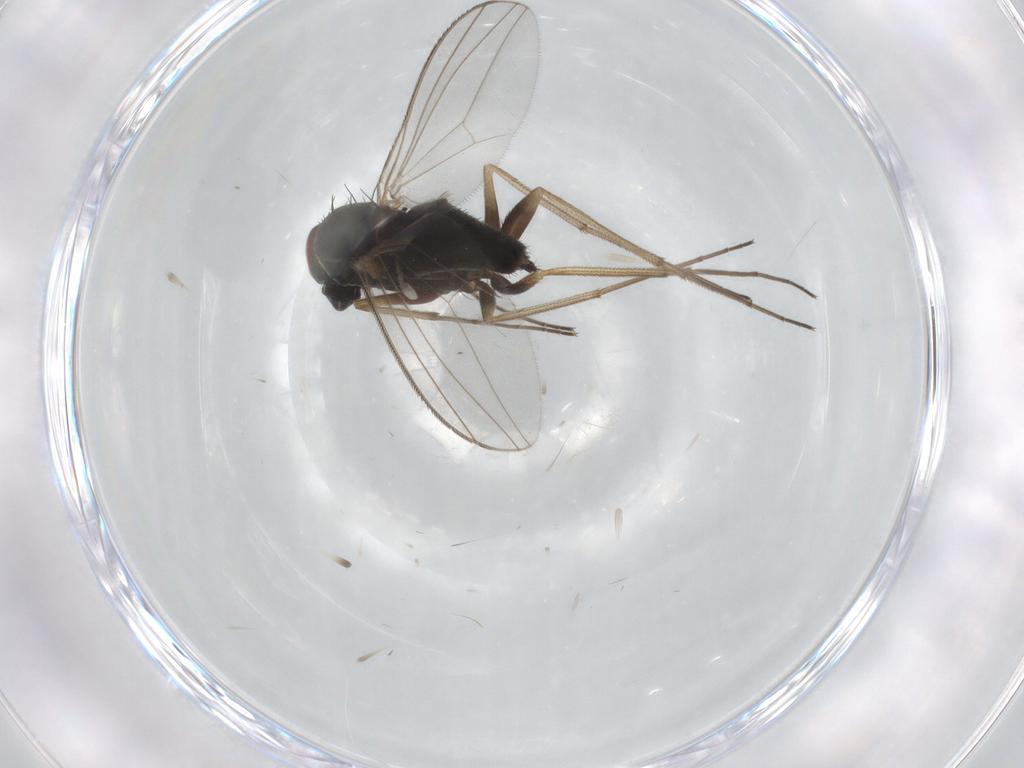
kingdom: Animalia
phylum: Arthropoda
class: Insecta
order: Diptera
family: Dolichopodidae
